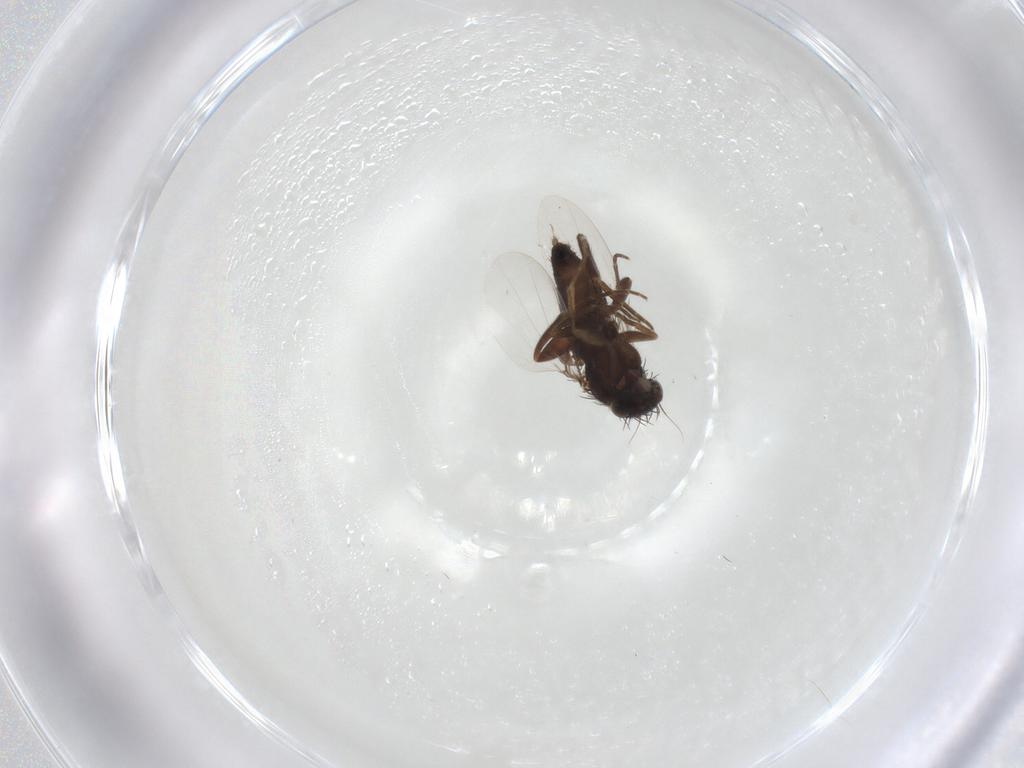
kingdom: Animalia
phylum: Arthropoda
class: Insecta
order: Diptera
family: Phoridae
